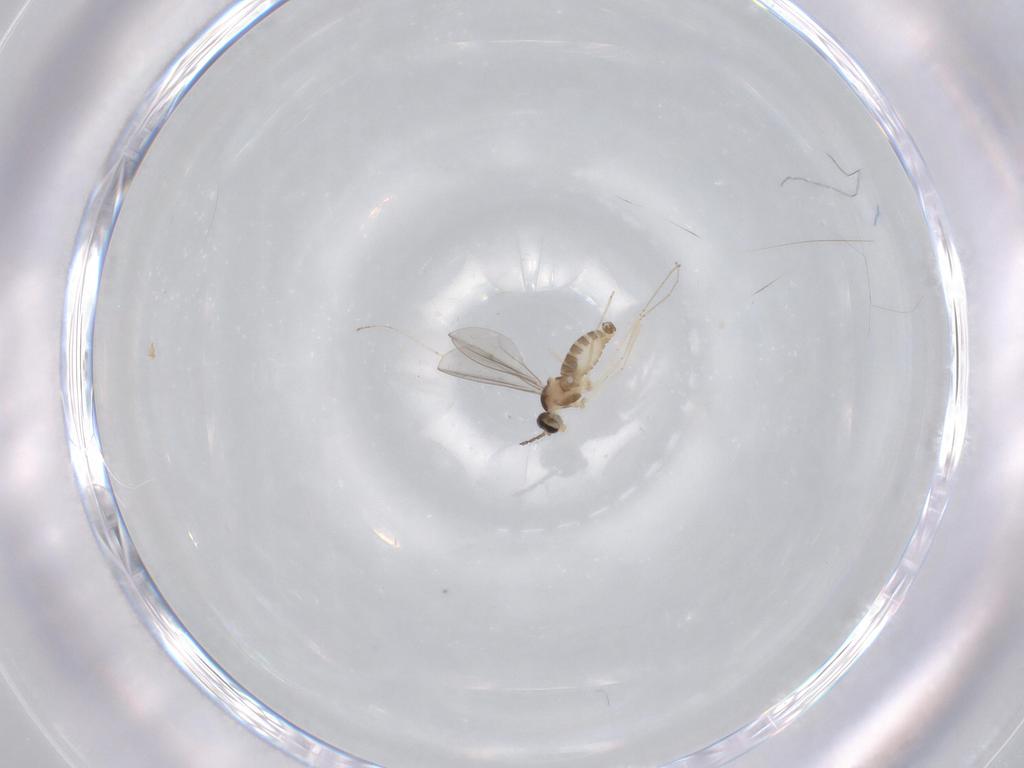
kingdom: Animalia
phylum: Arthropoda
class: Insecta
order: Diptera
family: Cecidomyiidae
